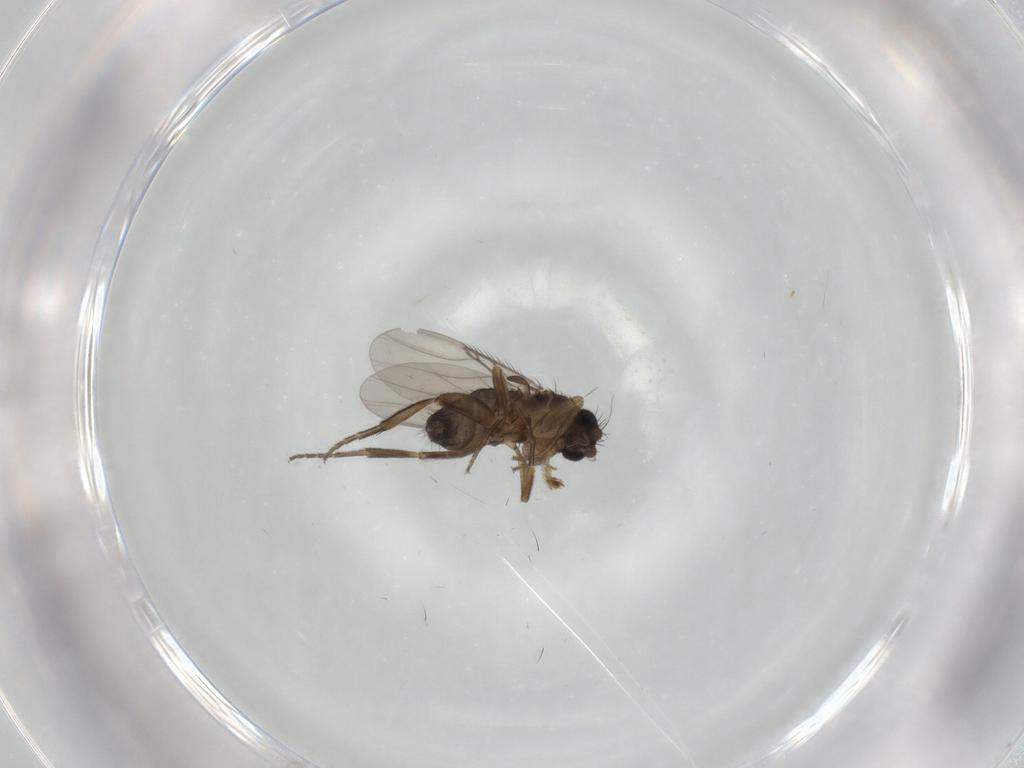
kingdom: Animalia
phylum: Arthropoda
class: Insecta
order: Diptera
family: Phoridae
